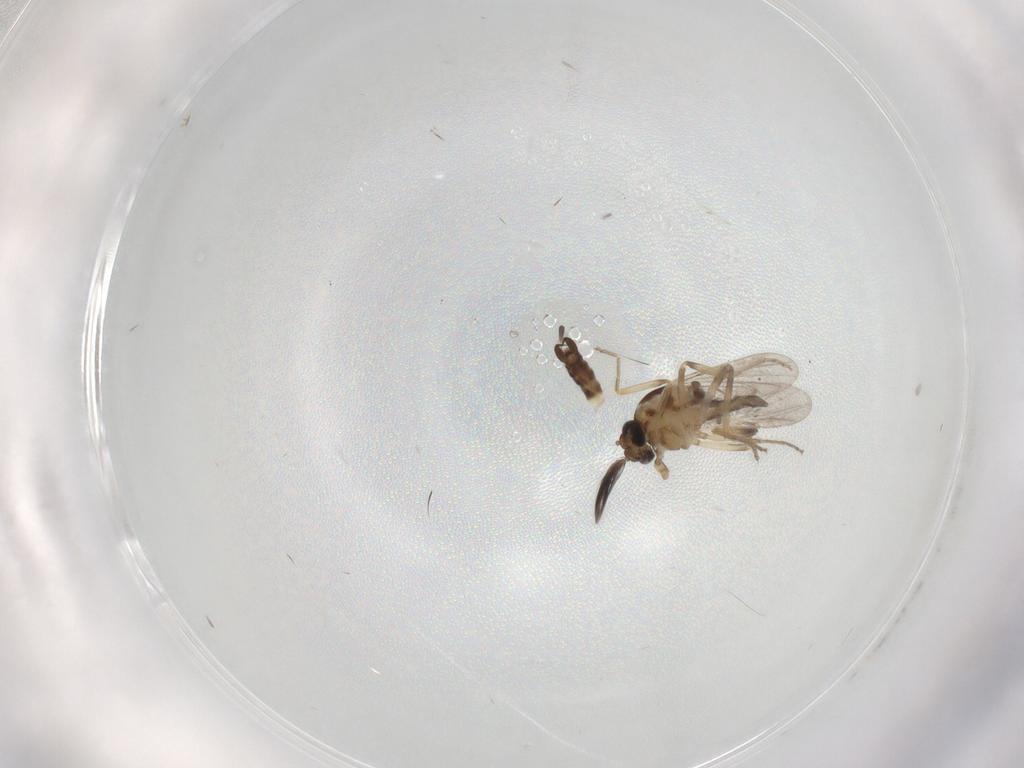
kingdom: Animalia
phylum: Arthropoda
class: Insecta
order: Diptera
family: Ceratopogonidae
